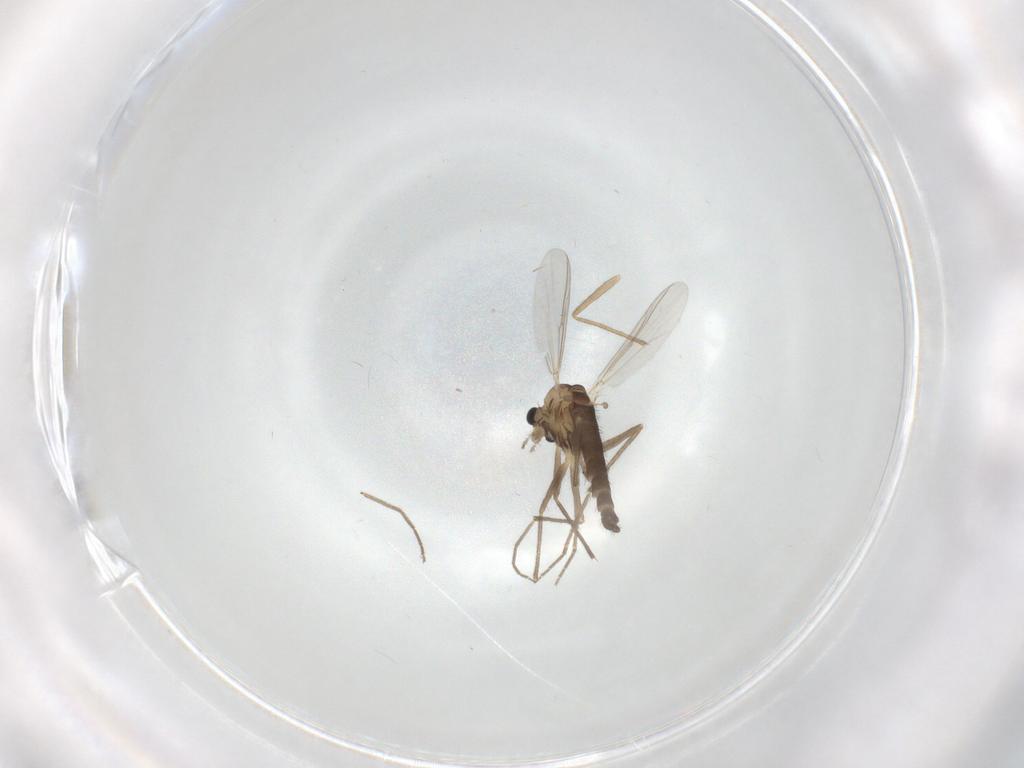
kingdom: Animalia
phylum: Arthropoda
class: Insecta
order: Diptera
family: Chironomidae
